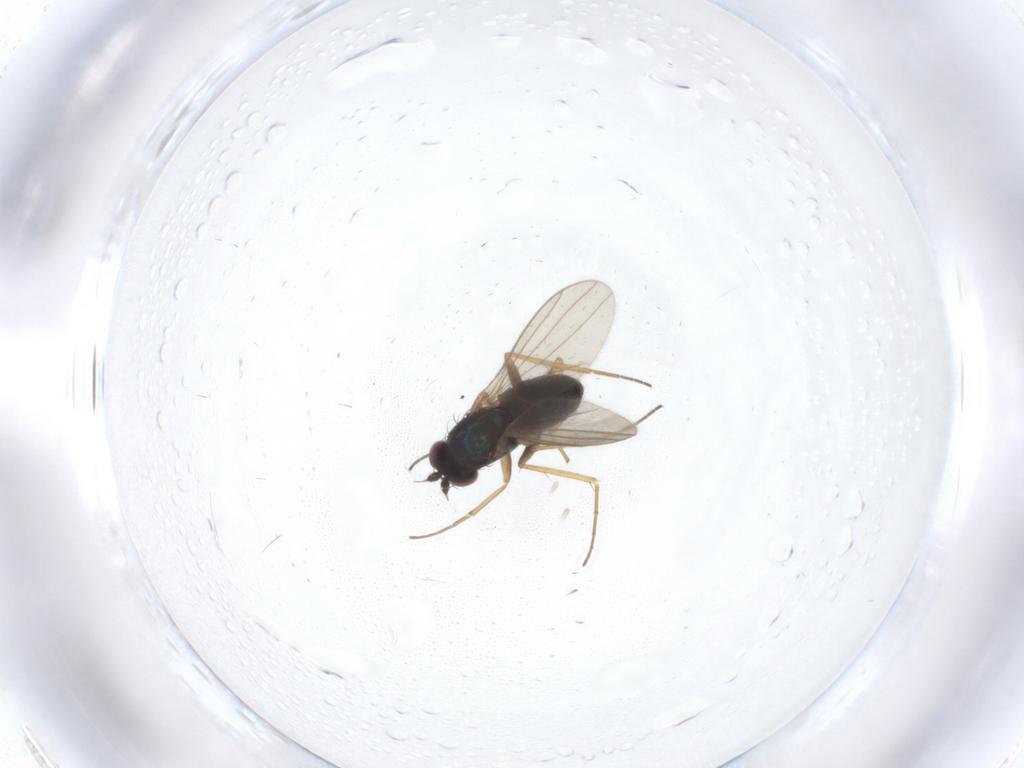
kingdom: Animalia
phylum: Arthropoda
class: Insecta
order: Diptera
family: Dolichopodidae
